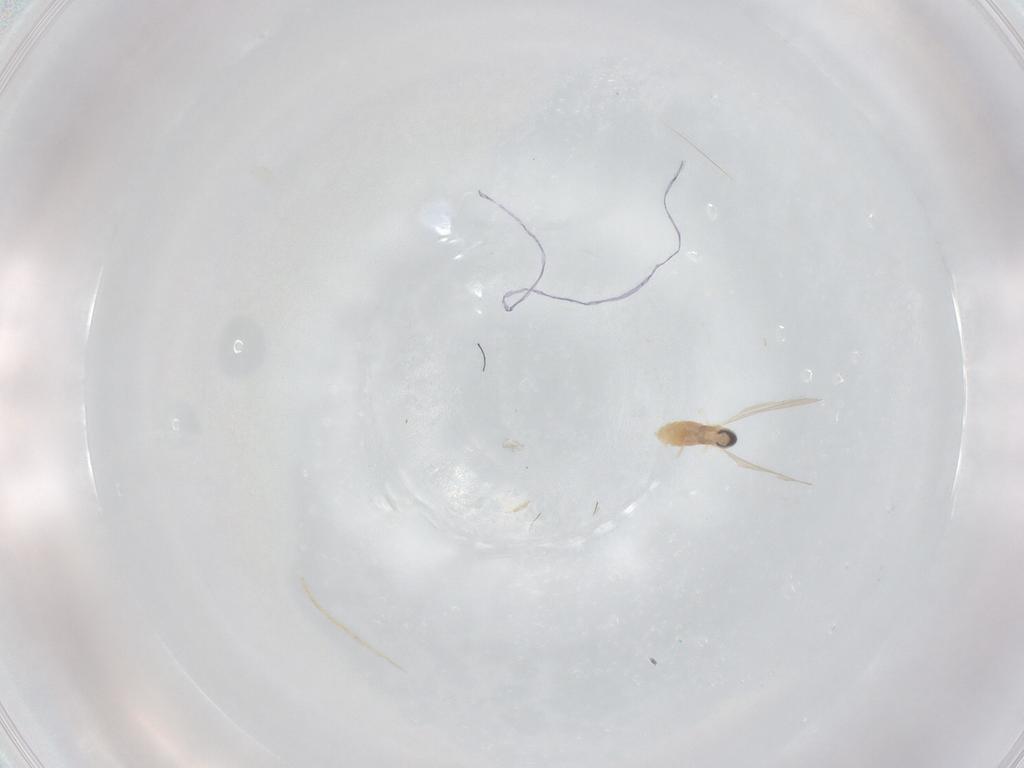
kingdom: Animalia
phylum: Arthropoda
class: Insecta
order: Diptera
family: Cecidomyiidae
